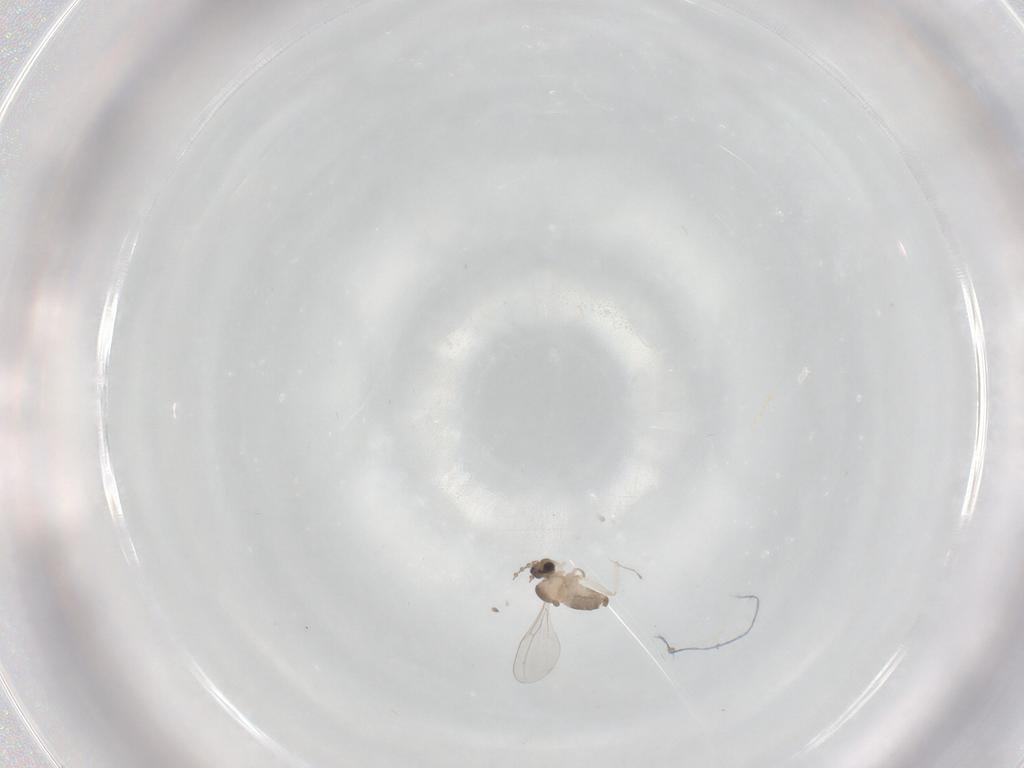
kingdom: Animalia
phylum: Arthropoda
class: Insecta
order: Diptera
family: Cecidomyiidae
